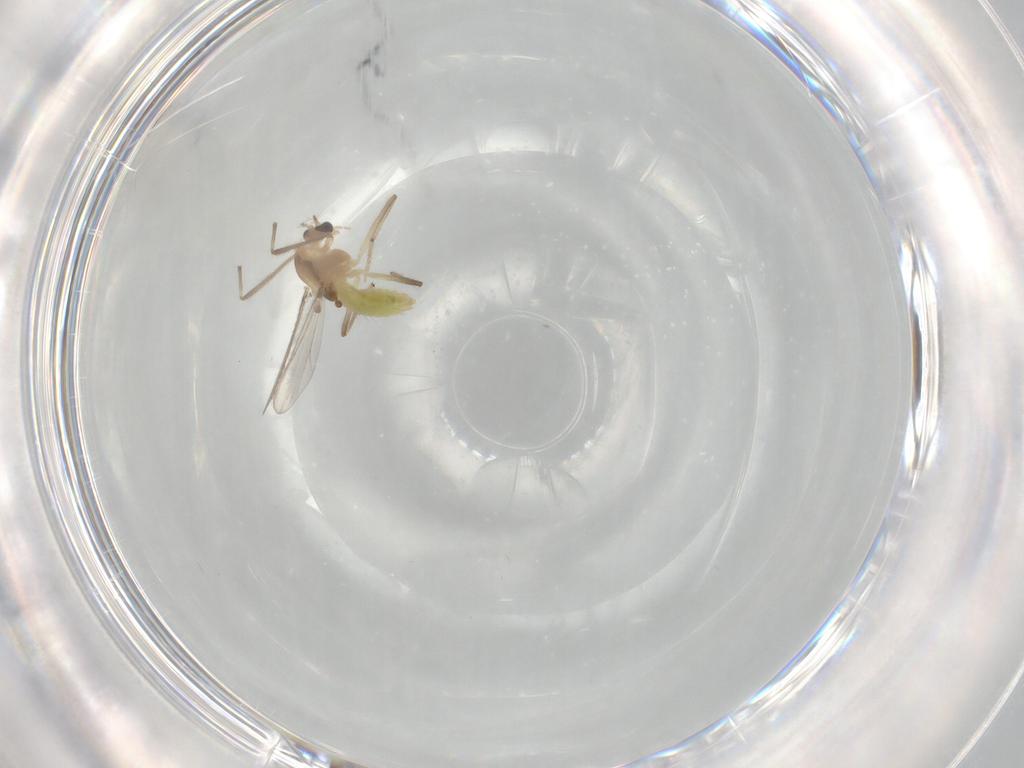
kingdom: Animalia
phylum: Arthropoda
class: Insecta
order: Diptera
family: Chironomidae
